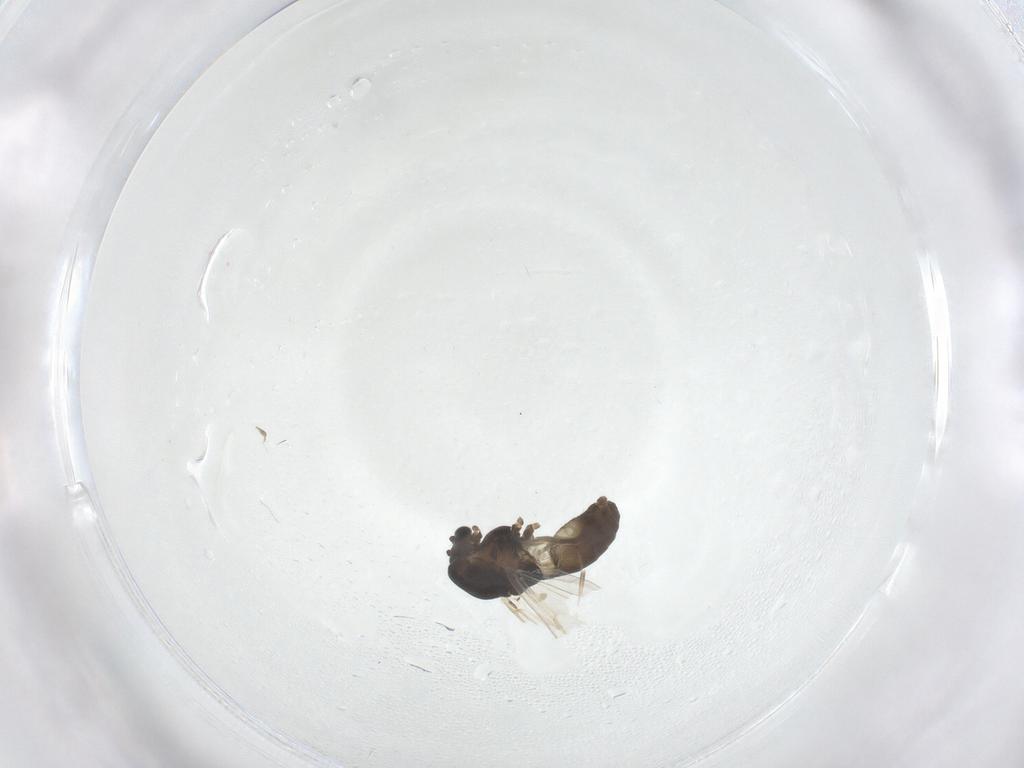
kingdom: Animalia
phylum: Arthropoda
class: Insecta
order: Diptera
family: Chironomidae
